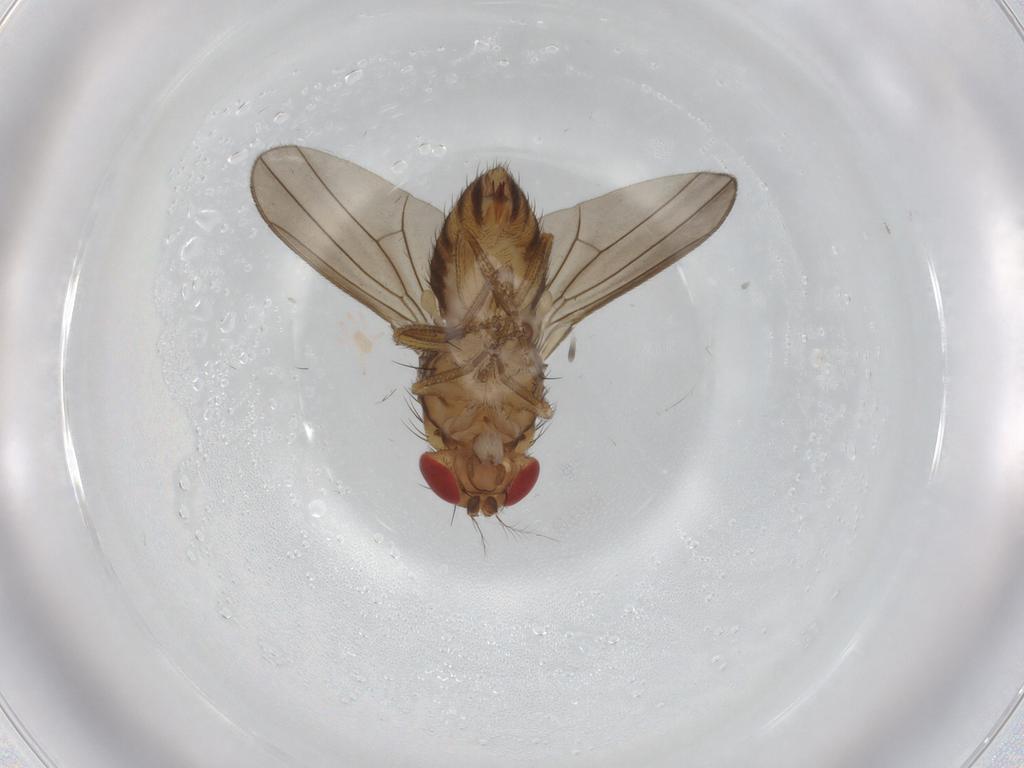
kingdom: Animalia
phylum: Arthropoda
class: Insecta
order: Diptera
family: Drosophilidae
